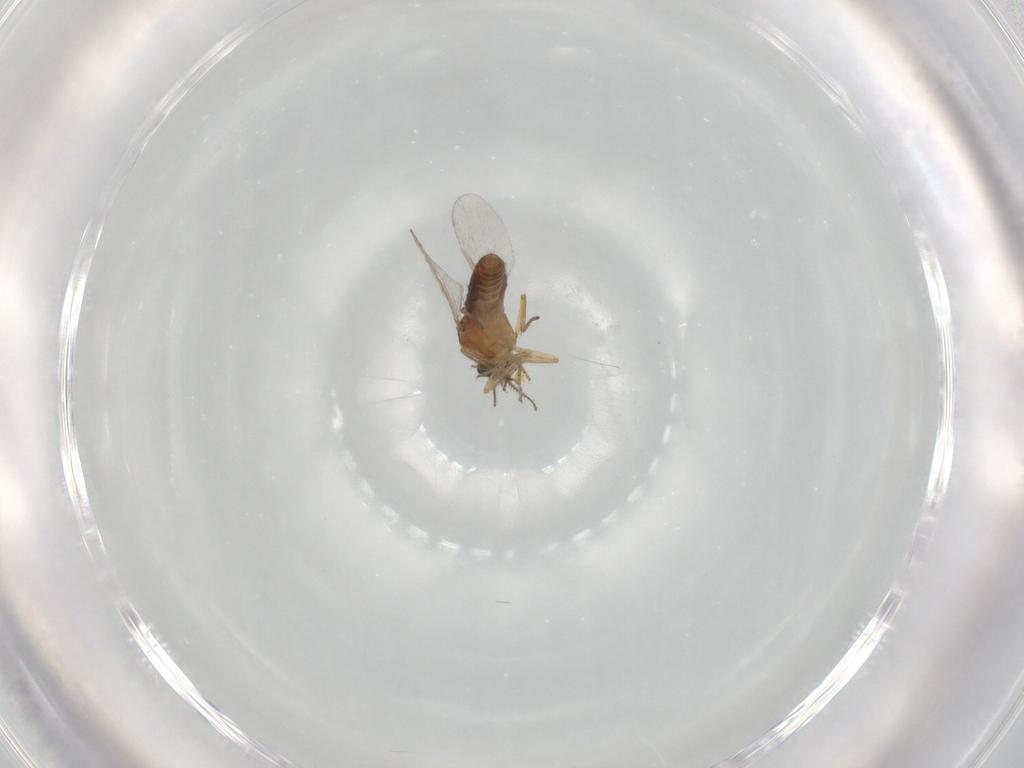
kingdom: Animalia
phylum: Arthropoda
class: Insecta
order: Diptera
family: Ceratopogonidae
